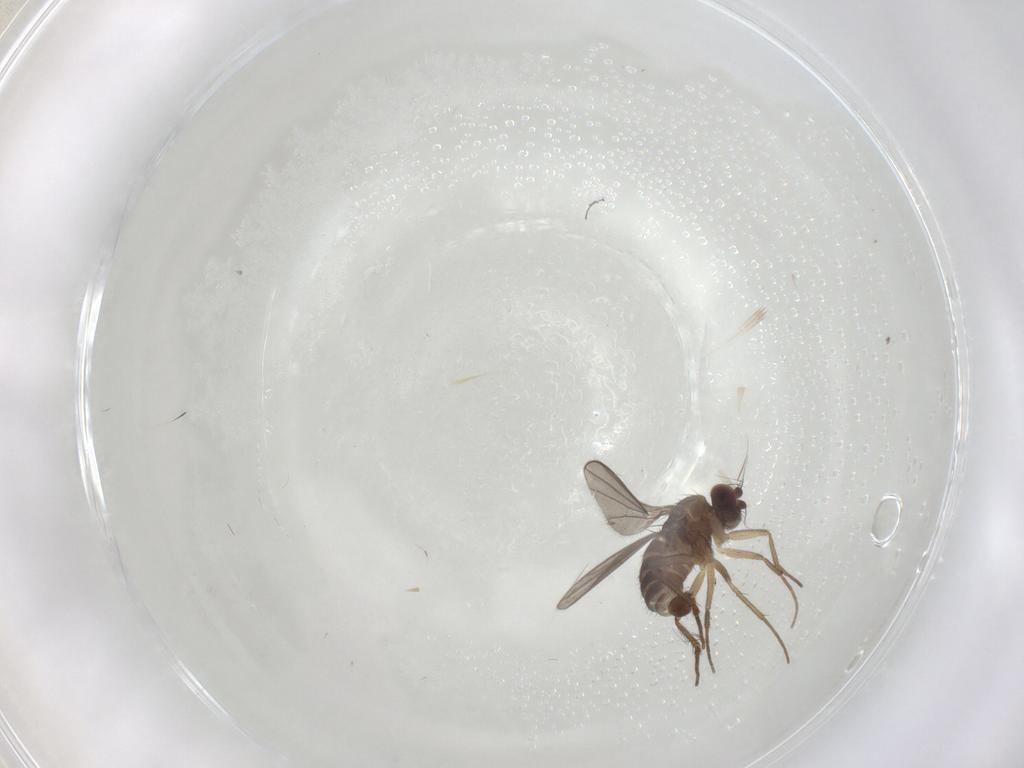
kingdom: Animalia
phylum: Arthropoda
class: Insecta
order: Diptera
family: Dolichopodidae
